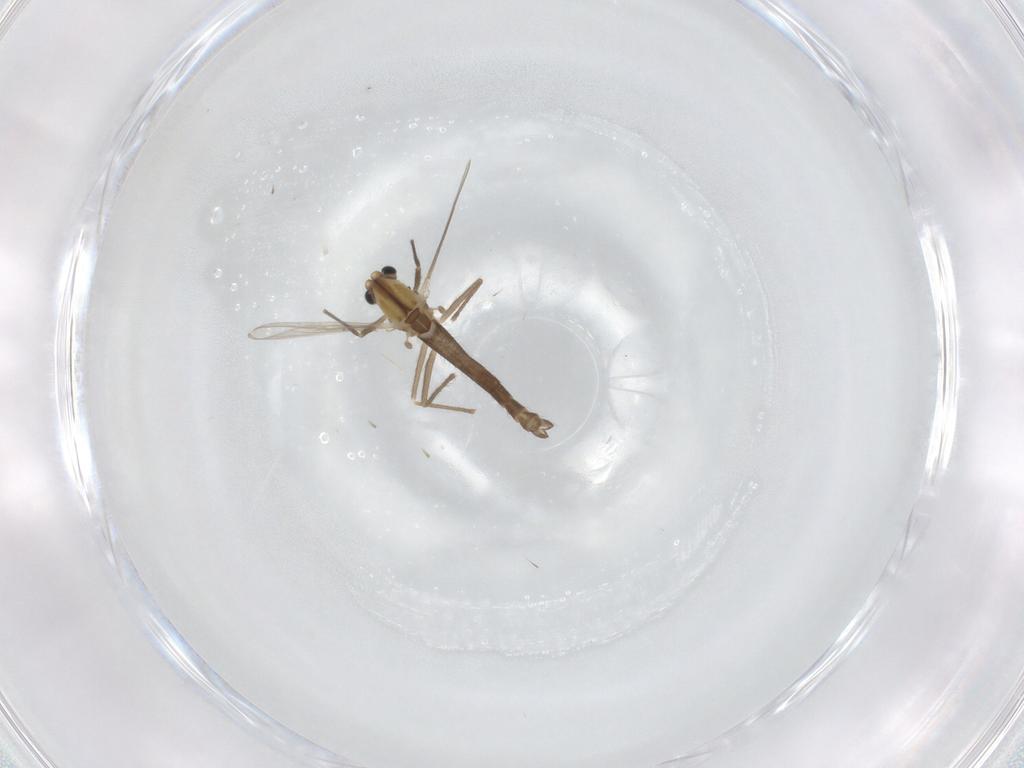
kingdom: Animalia
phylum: Arthropoda
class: Insecta
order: Diptera
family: Chironomidae
